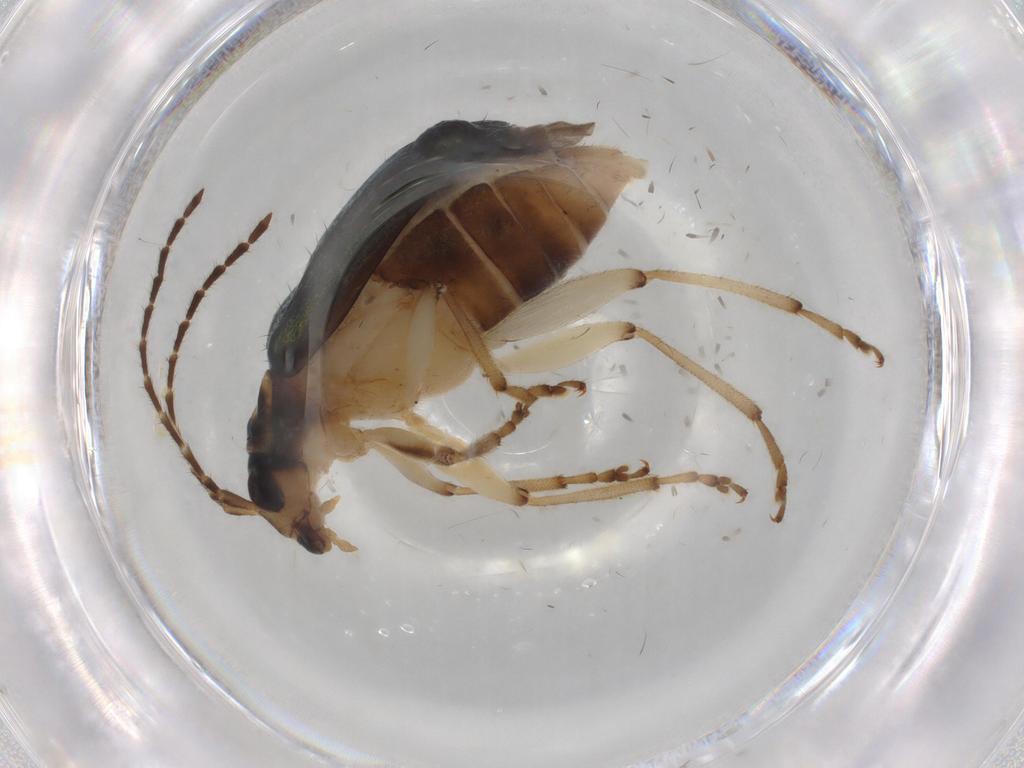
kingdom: Animalia
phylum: Arthropoda
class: Insecta
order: Coleoptera
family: Chrysomelidae
